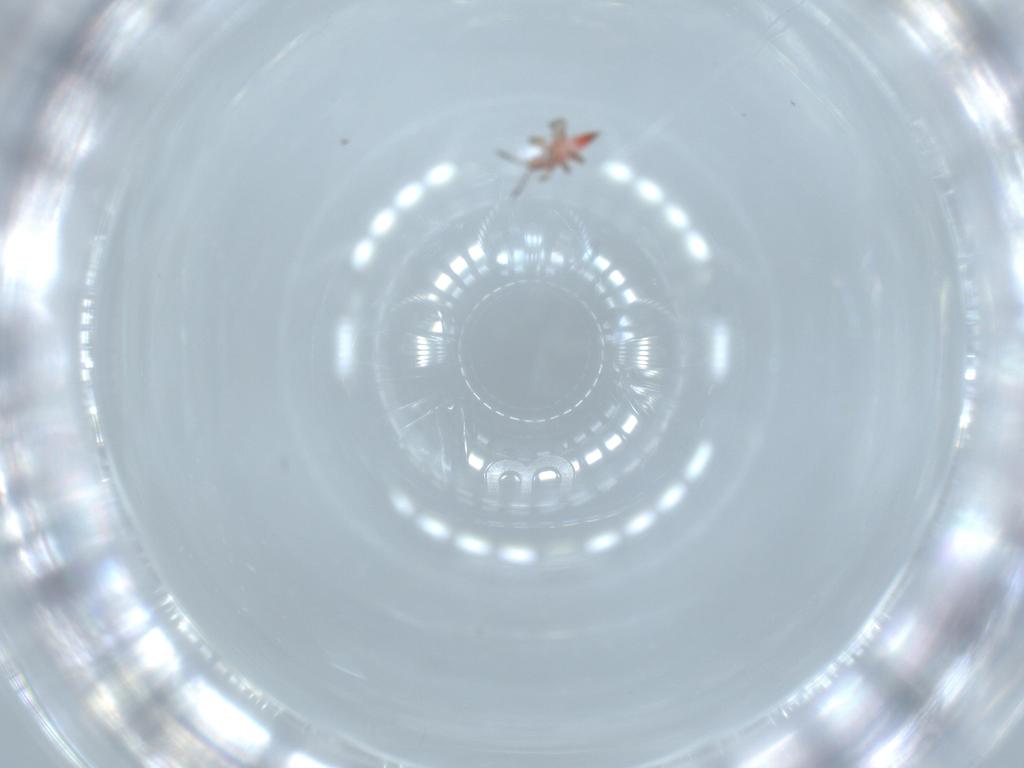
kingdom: Animalia
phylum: Arthropoda
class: Insecta
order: Thysanoptera
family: Phlaeothripidae
